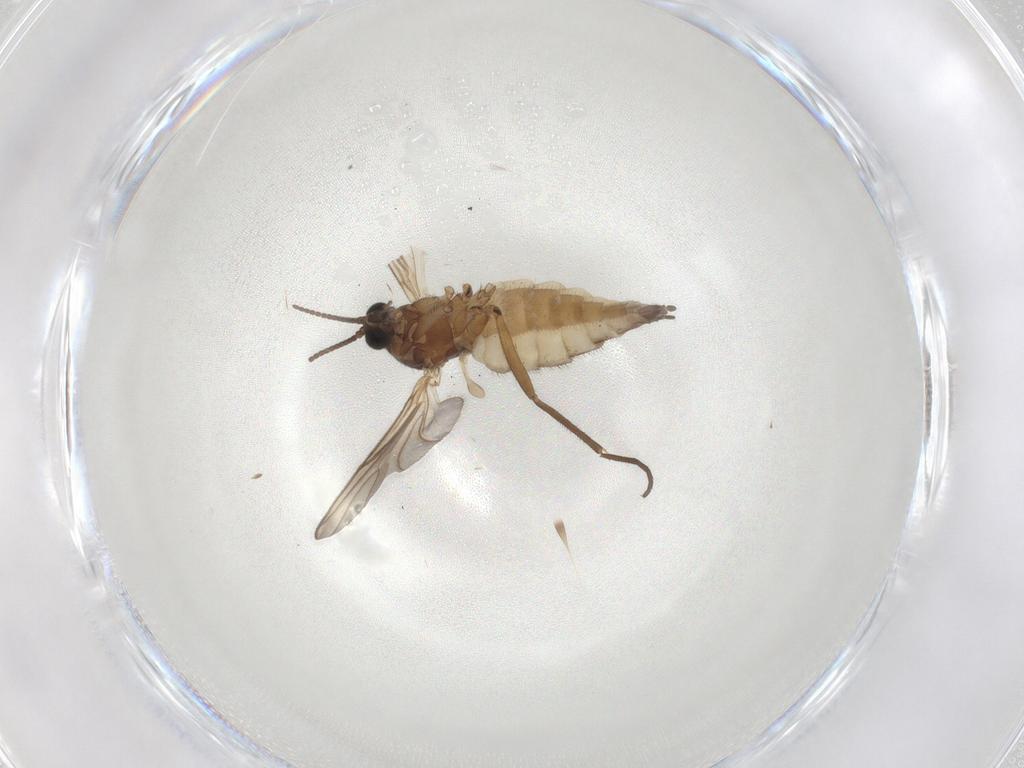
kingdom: Animalia
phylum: Arthropoda
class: Insecta
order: Diptera
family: Sciaridae
